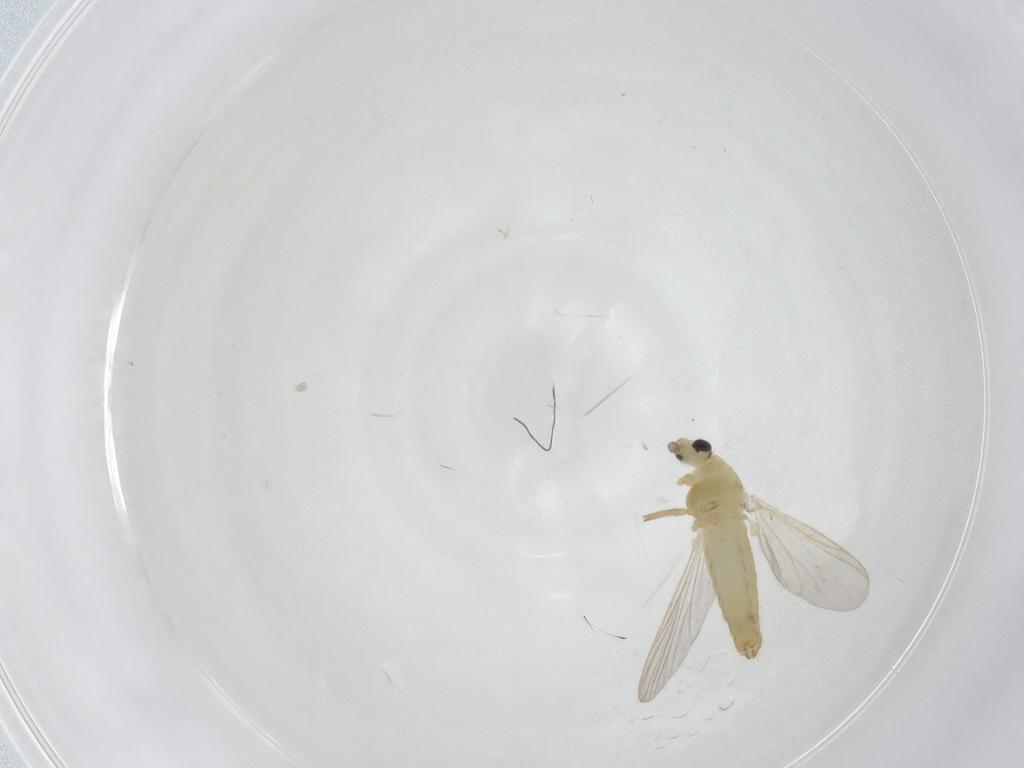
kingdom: Animalia
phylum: Arthropoda
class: Insecta
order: Diptera
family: Chironomidae
